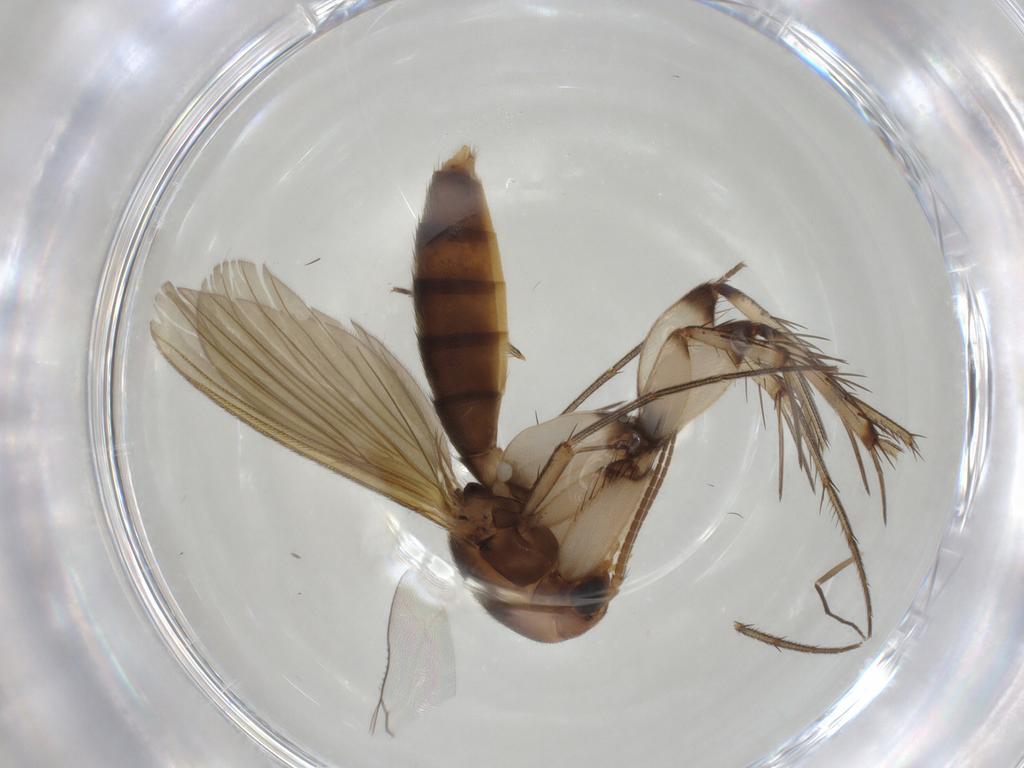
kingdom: Animalia
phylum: Arthropoda
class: Insecta
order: Diptera
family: Mycetophilidae
